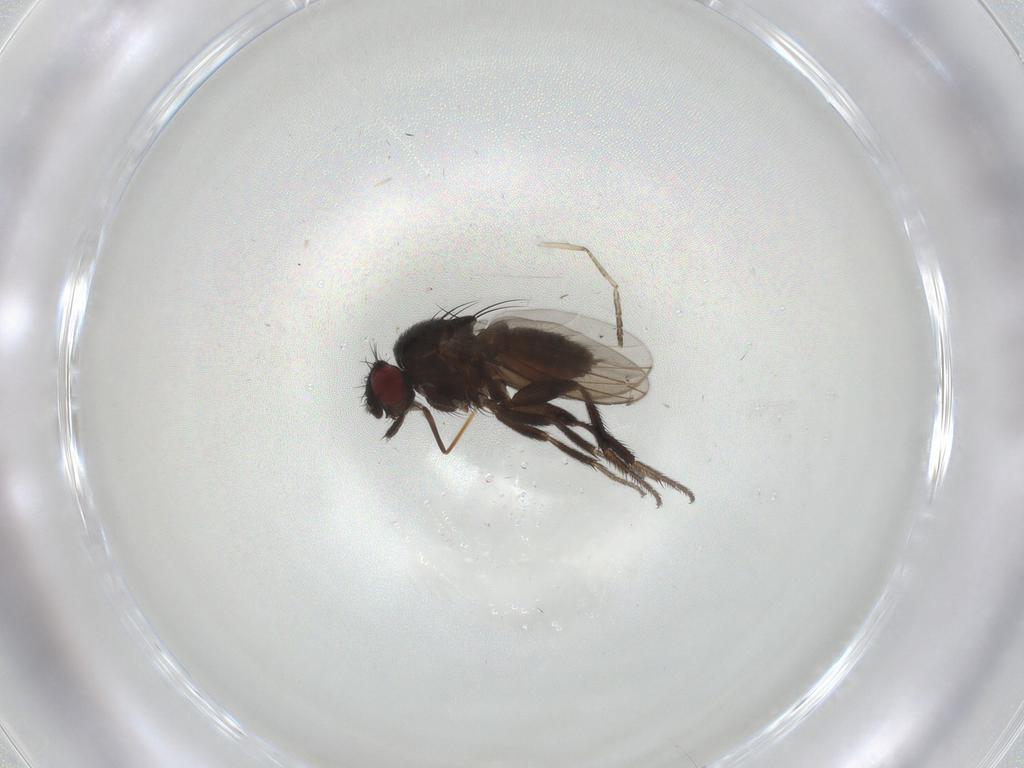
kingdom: Animalia
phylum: Arthropoda
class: Insecta
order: Diptera
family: Milichiidae
